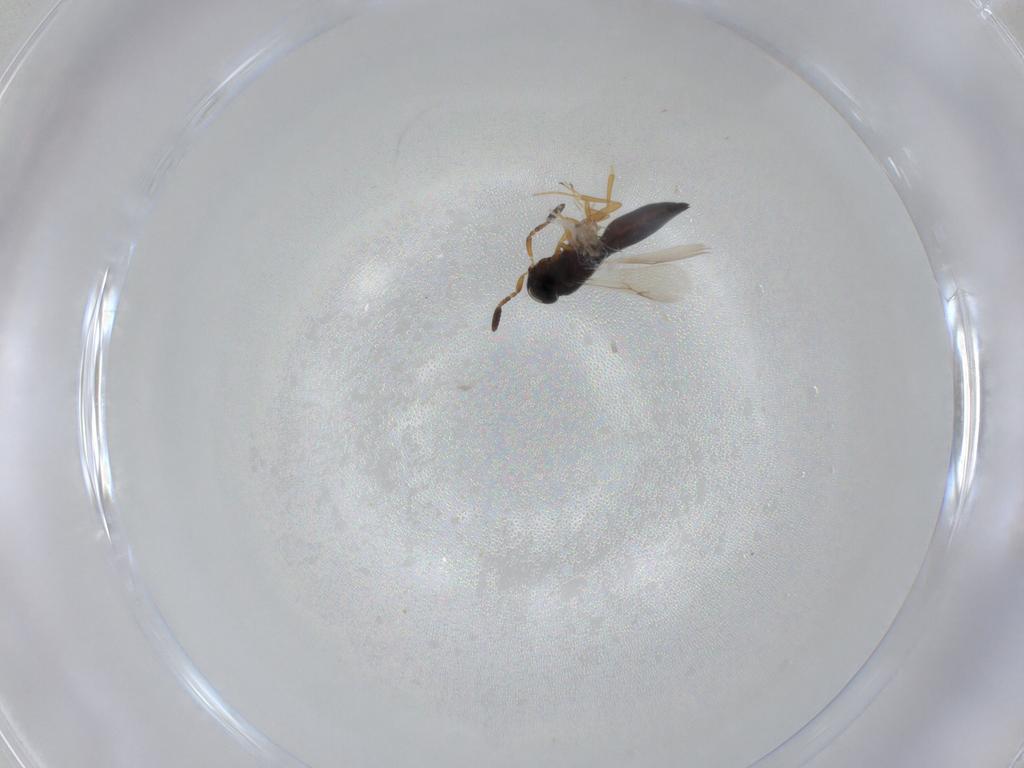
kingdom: Animalia
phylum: Arthropoda
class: Insecta
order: Hymenoptera
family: Scelionidae
